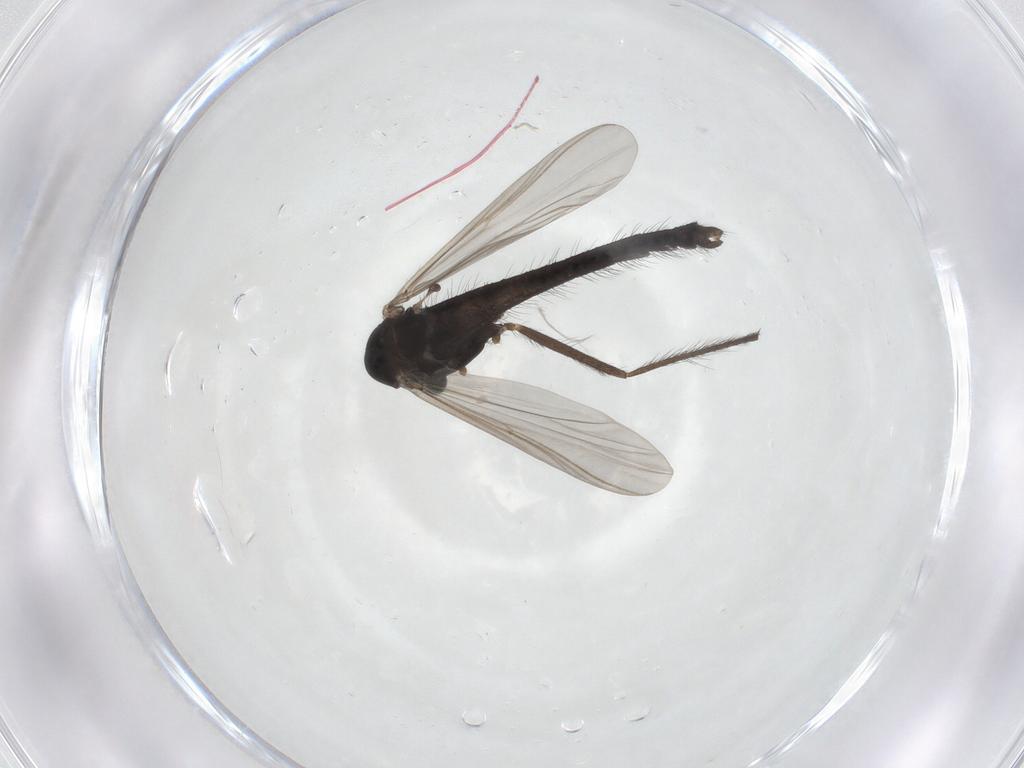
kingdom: Animalia
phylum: Arthropoda
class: Insecta
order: Diptera
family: Chironomidae
